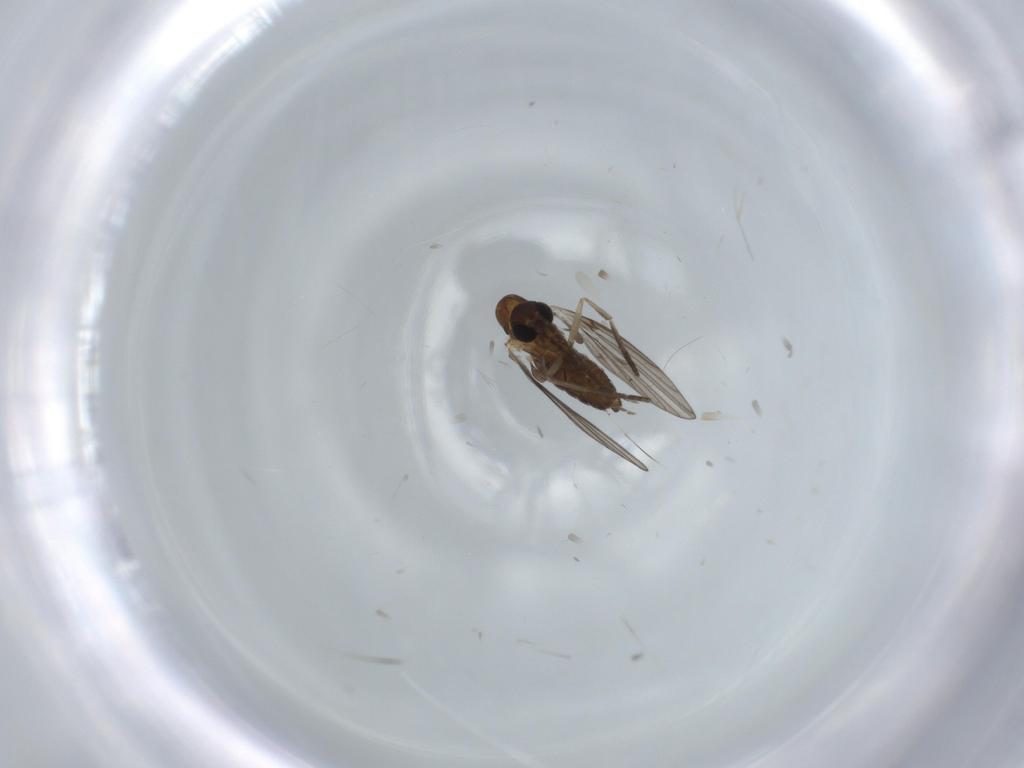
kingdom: Animalia
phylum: Arthropoda
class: Insecta
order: Diptera
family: Psychodidae
